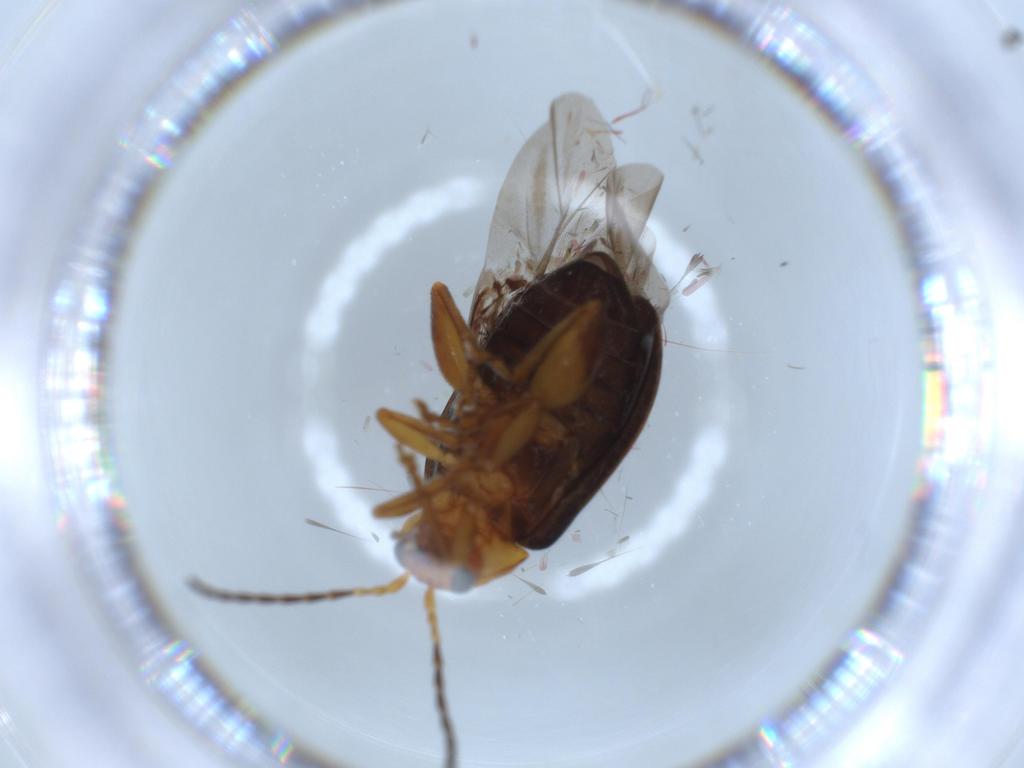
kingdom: Animalia
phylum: Arthropoda
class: Insecta
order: Coleoptera
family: Chrysomelidae
